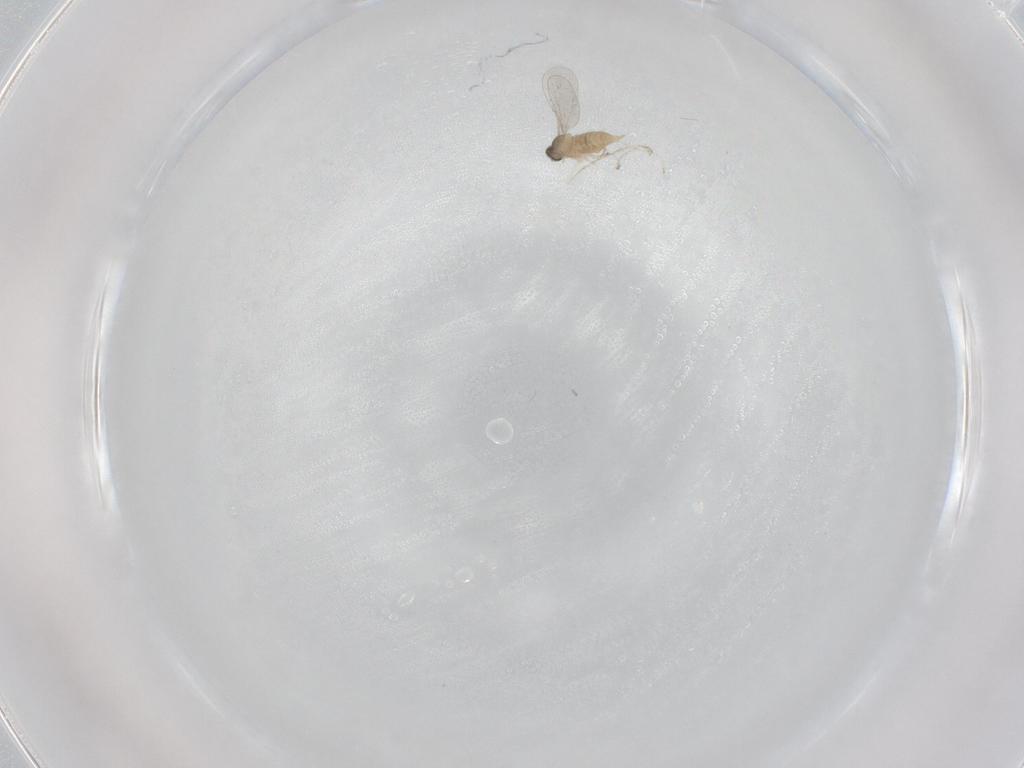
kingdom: Animalia
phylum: Arthropoda
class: Insecta
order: Diptera
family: Cecidomyiidae
